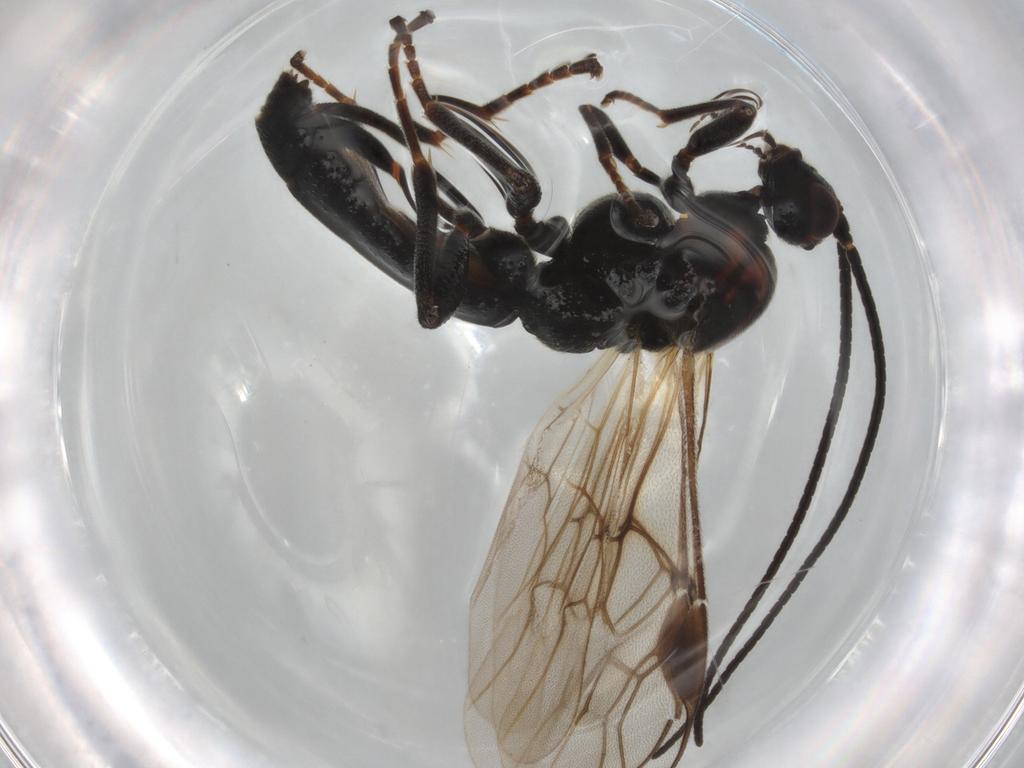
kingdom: Animalia
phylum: Arthropoda
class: Insecta
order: Hymenoptera
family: Braconidae
